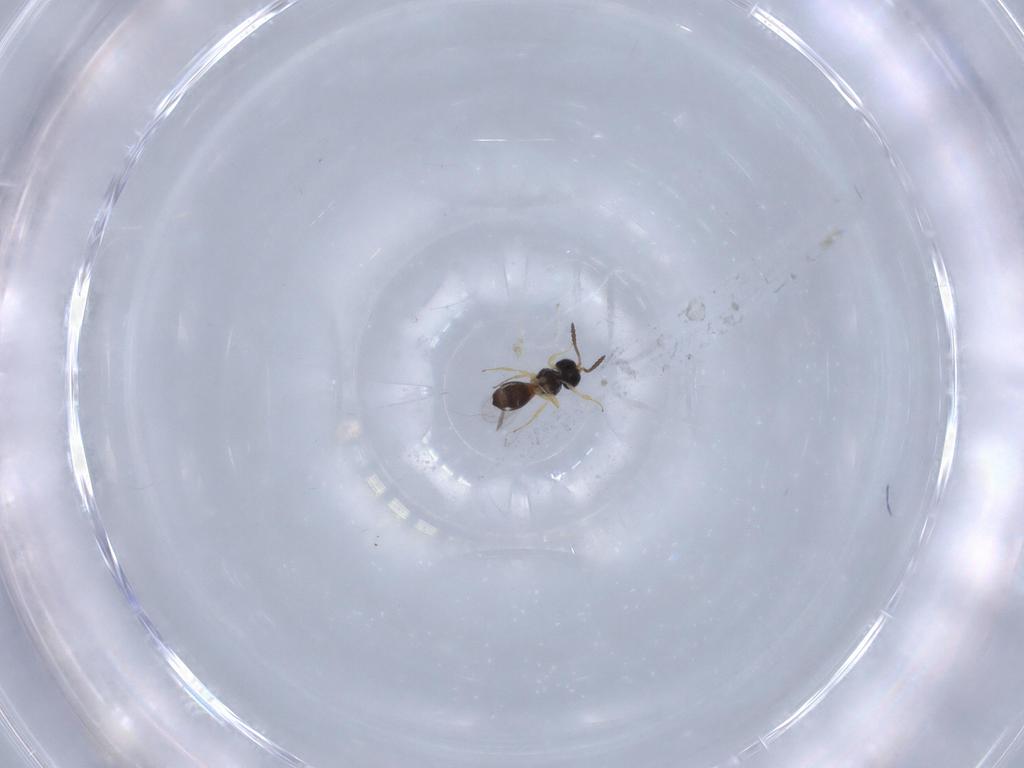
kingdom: Animalia
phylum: Arthropoda
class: Insecta
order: Hymenoptera
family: Scelionidae
